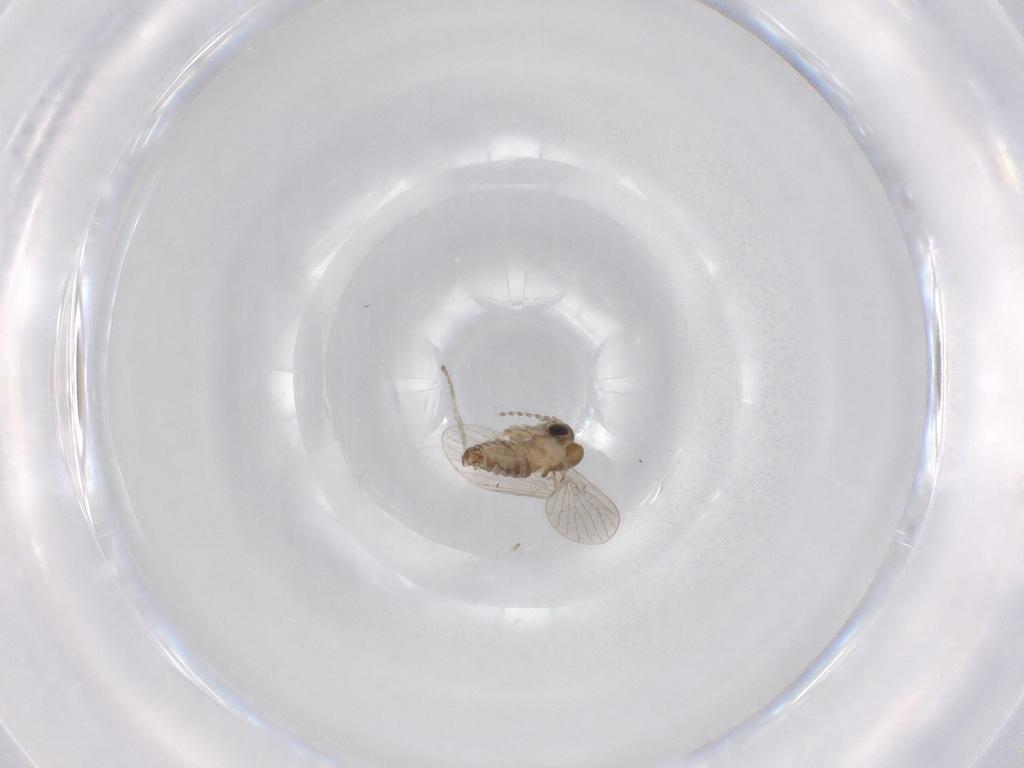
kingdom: Animalia
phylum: Arthropoda
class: Insecta
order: Diptera
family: Psychodidae
